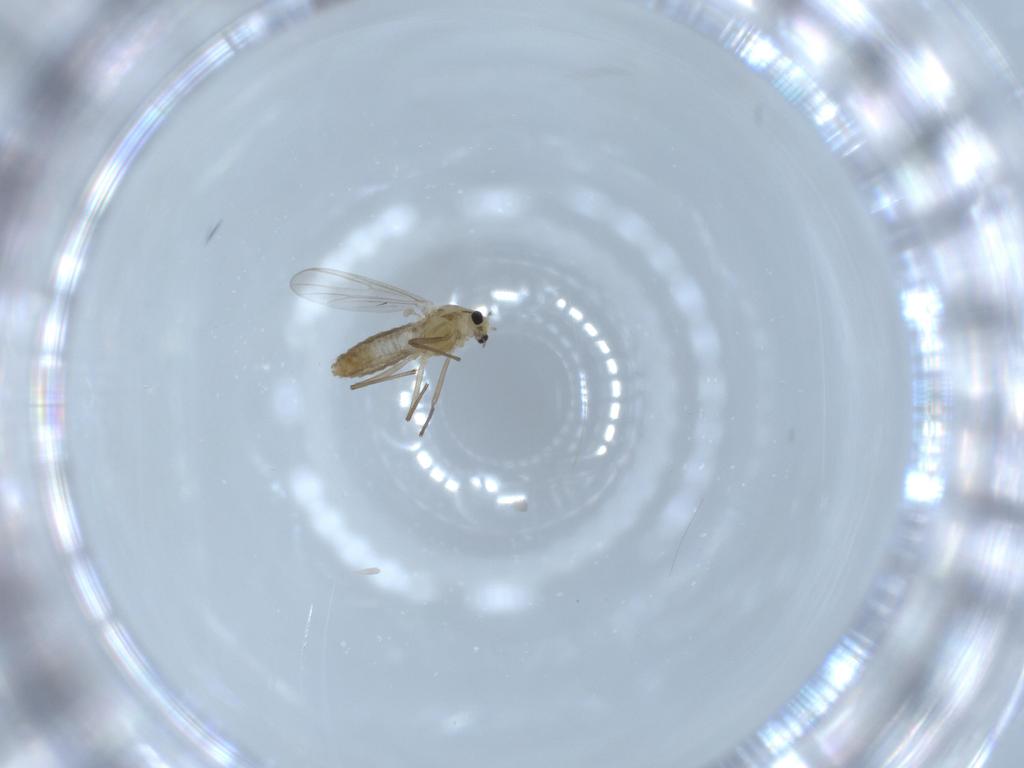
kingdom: Animalia
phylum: Arthropoda
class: Insecta
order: Diptera
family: Chironomidae
